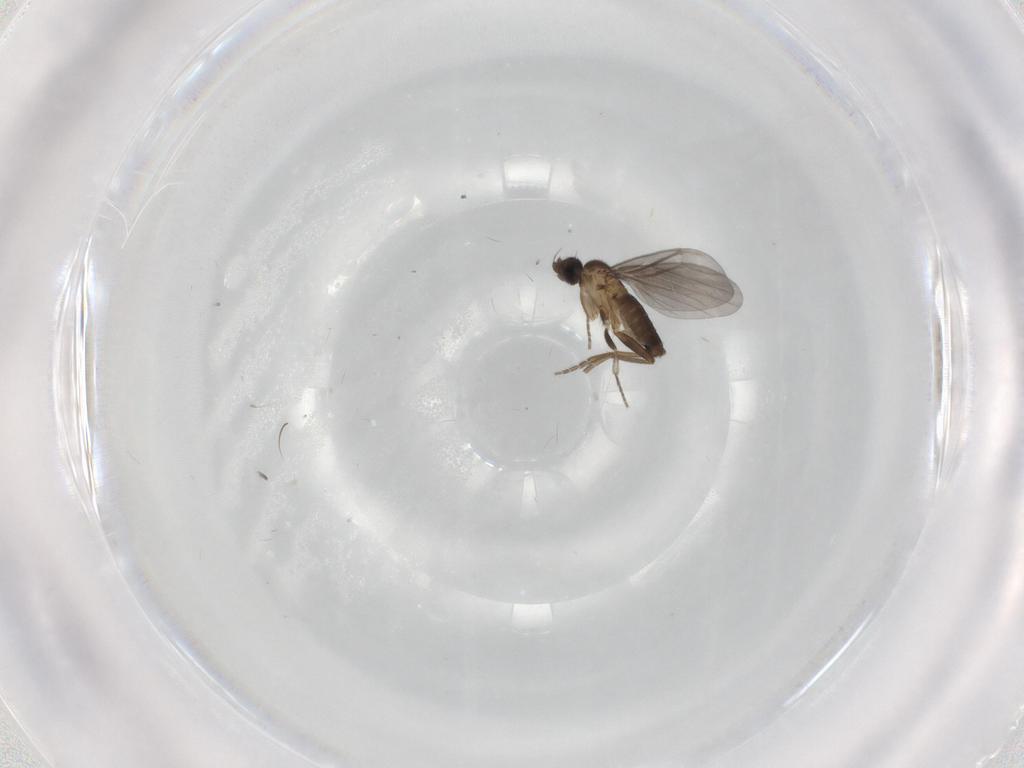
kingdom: Animalia
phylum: Arthropoda
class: Insecta
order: Diptera
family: Phoridae
